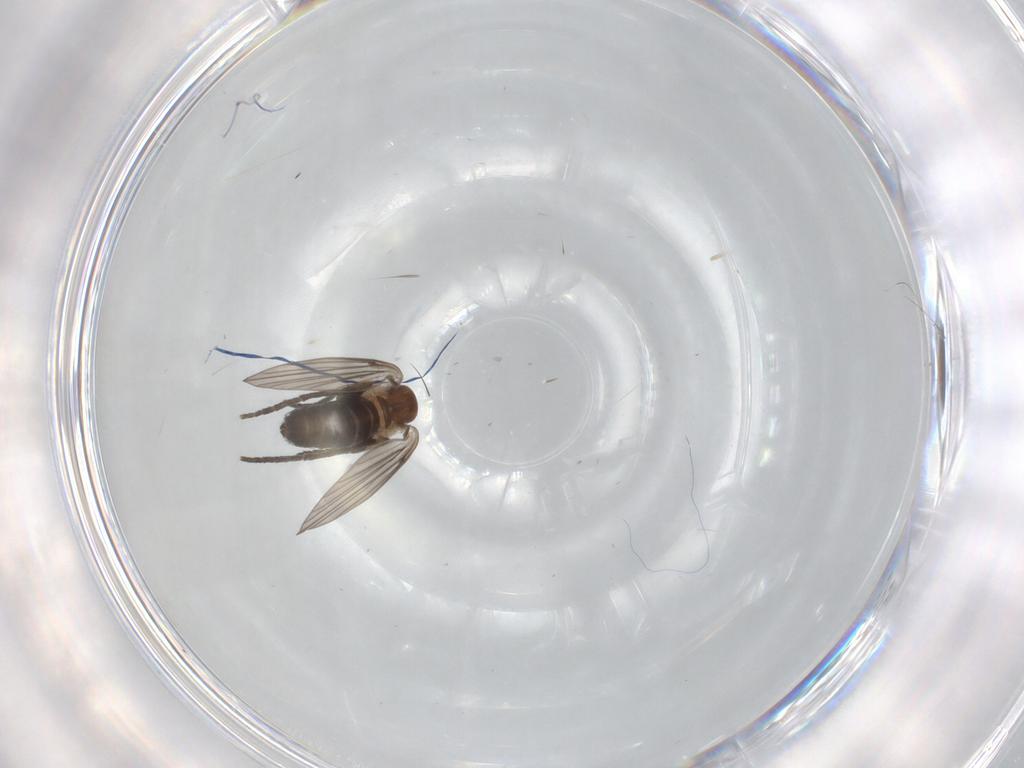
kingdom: Animalia
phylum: Arthropoda
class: Insecta
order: Diptera
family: Psychodidae
